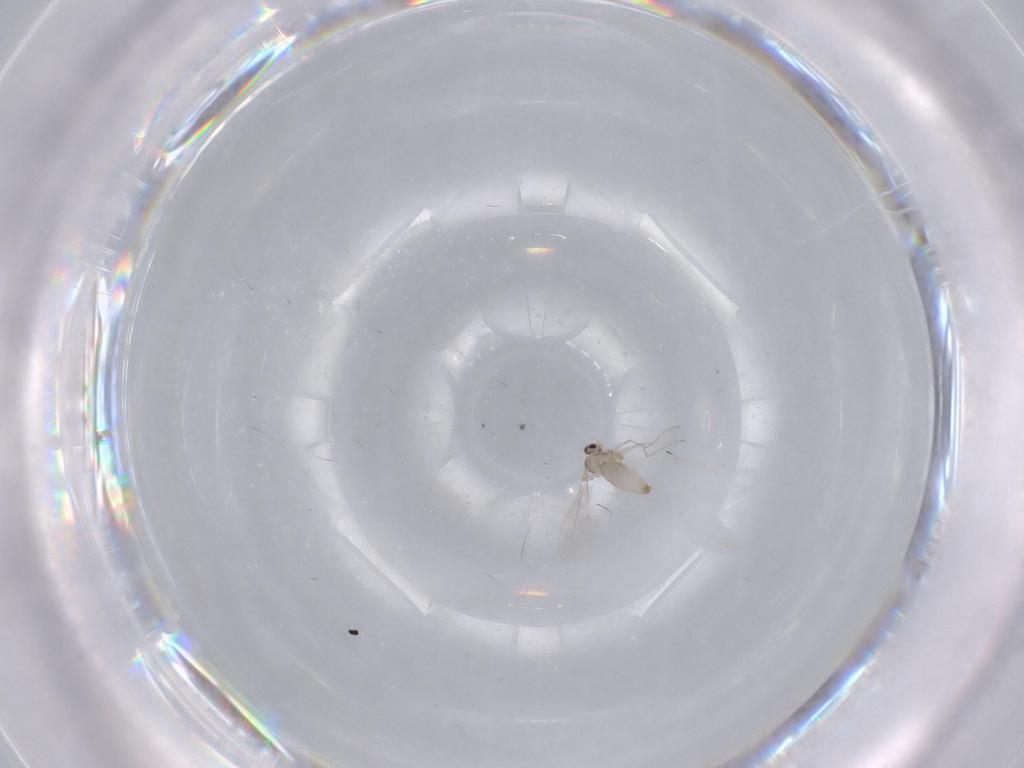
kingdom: Animalia
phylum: Arthropoda
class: Insecta
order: Diptera
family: Cecidomyiidae
